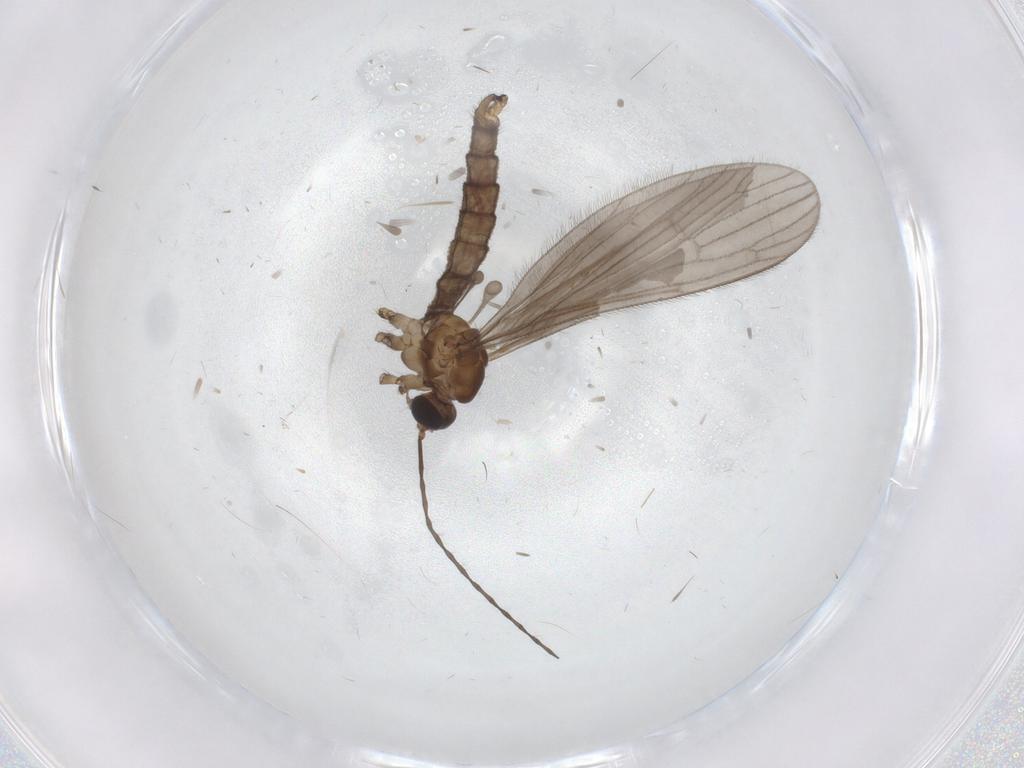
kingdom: Animalia
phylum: Arthropoda
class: Insecta
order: Diptera
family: Limoniidae
